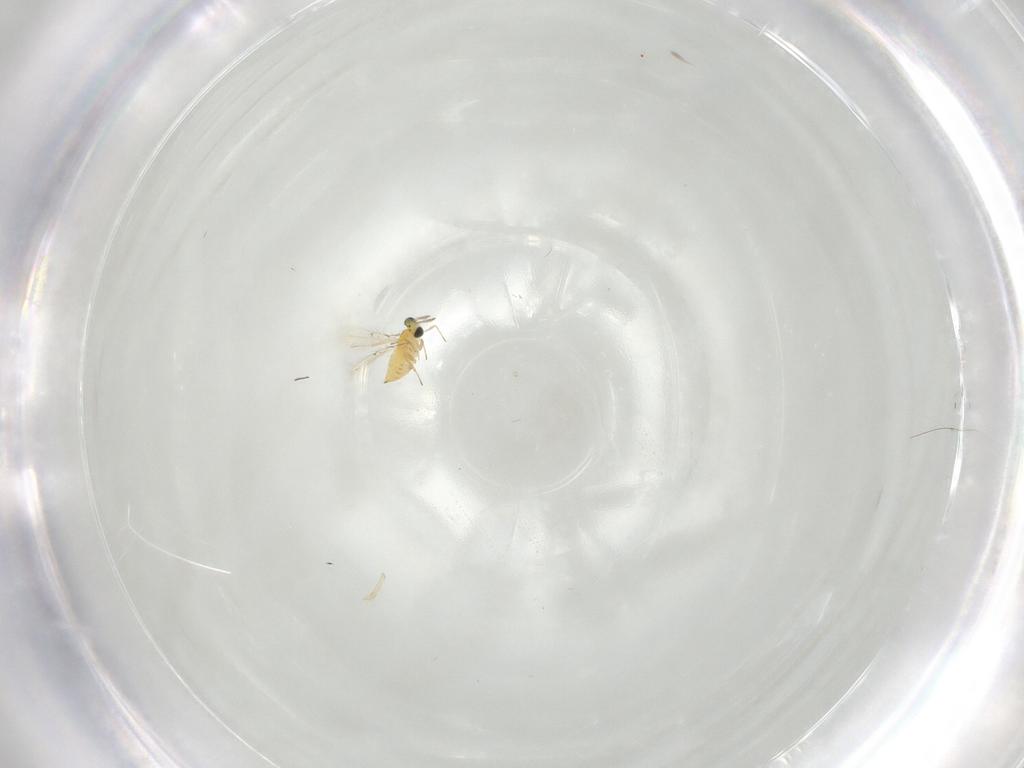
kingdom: Animalia
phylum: Arthropoda
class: Insecta
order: Hymenoptera
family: Trichogrammatidae
